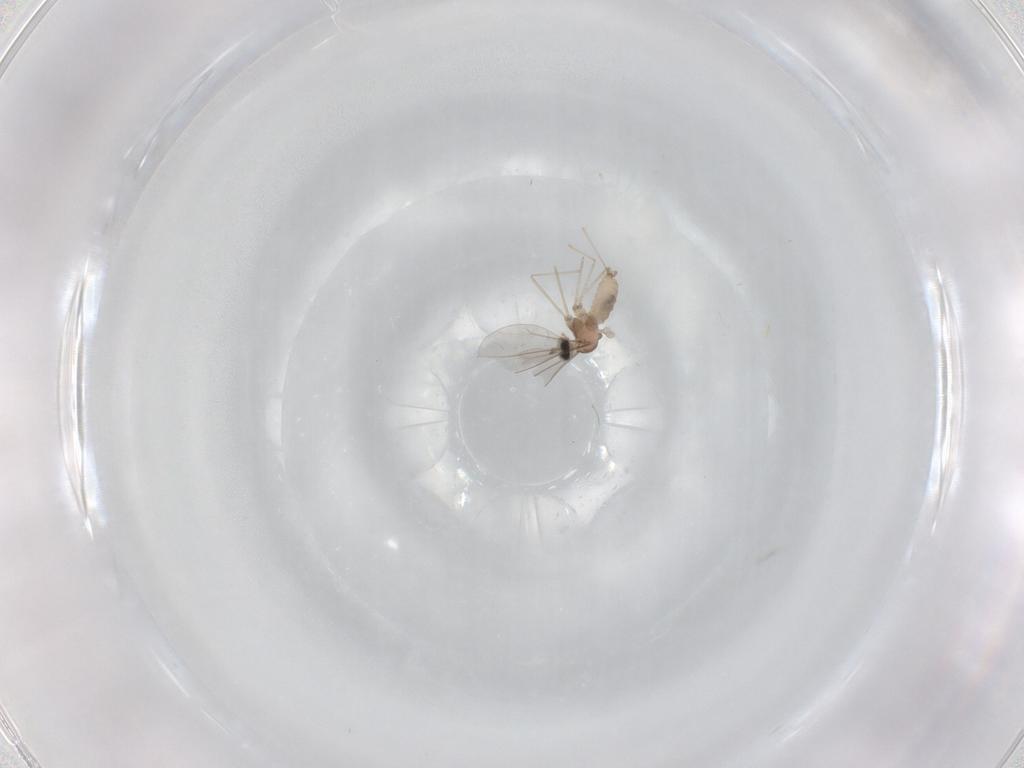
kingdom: Animalia
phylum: Arthropoda
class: Insecta
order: Diptera
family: Cecidomyiidae
